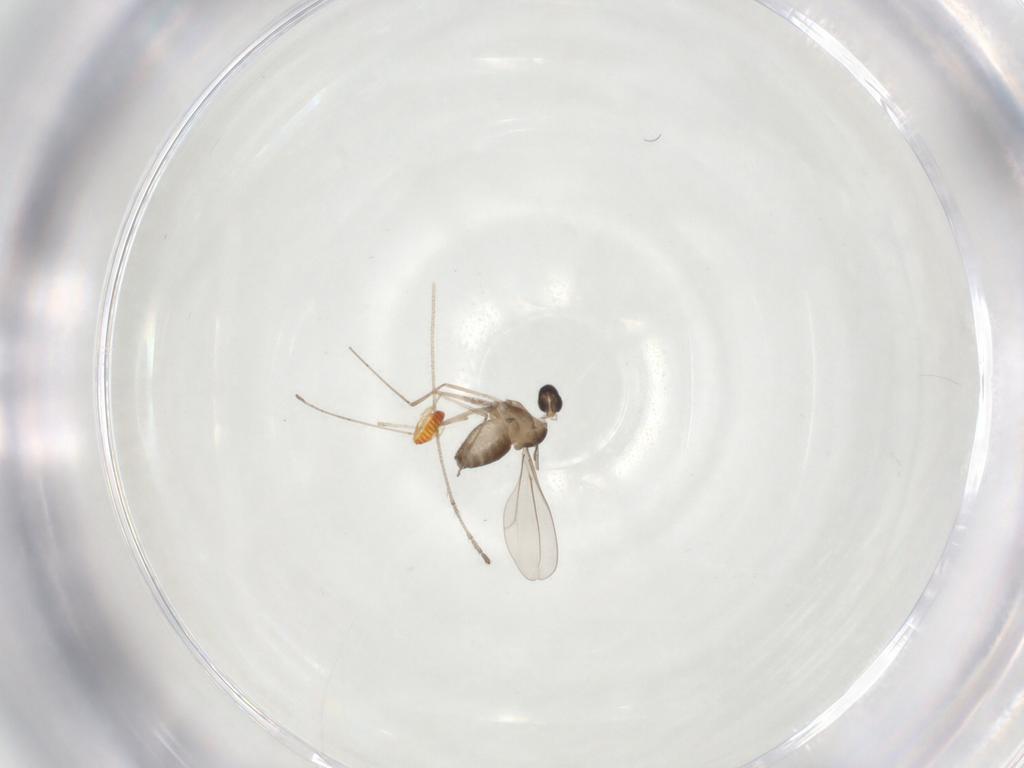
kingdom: Animalia
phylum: Arthropoda
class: Insecta
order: Diptera
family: Cecidomyiidae
